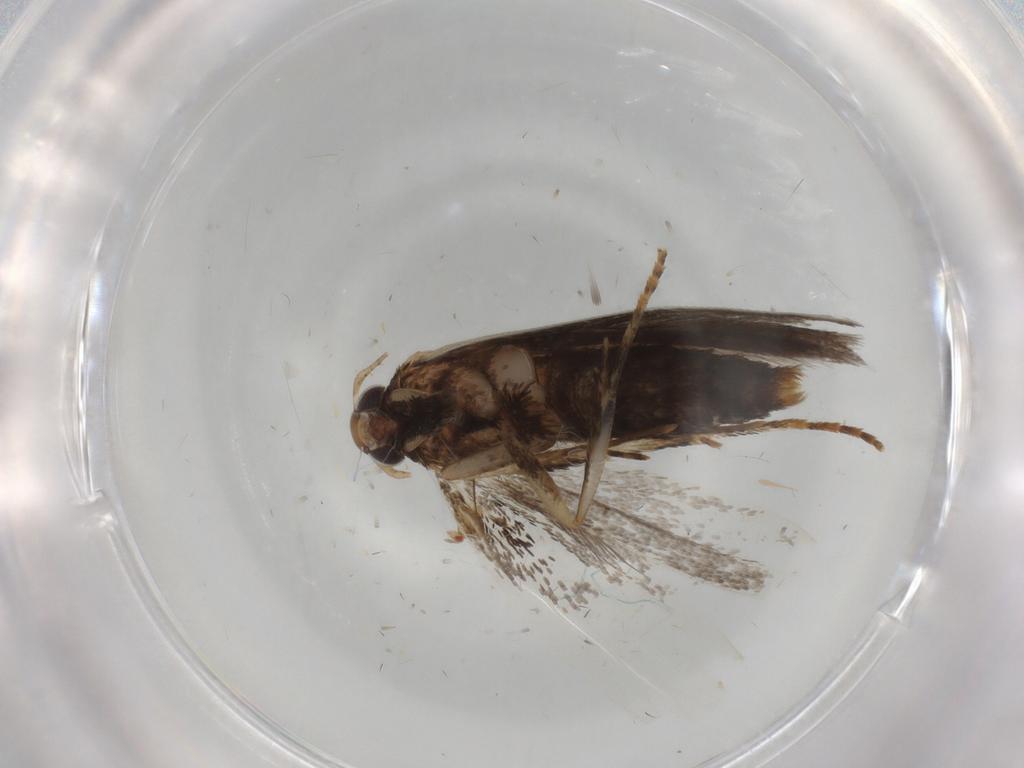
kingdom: Animalia
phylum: Arthropoda
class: Insecta
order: Lepidoptera
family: Gelechiidae
